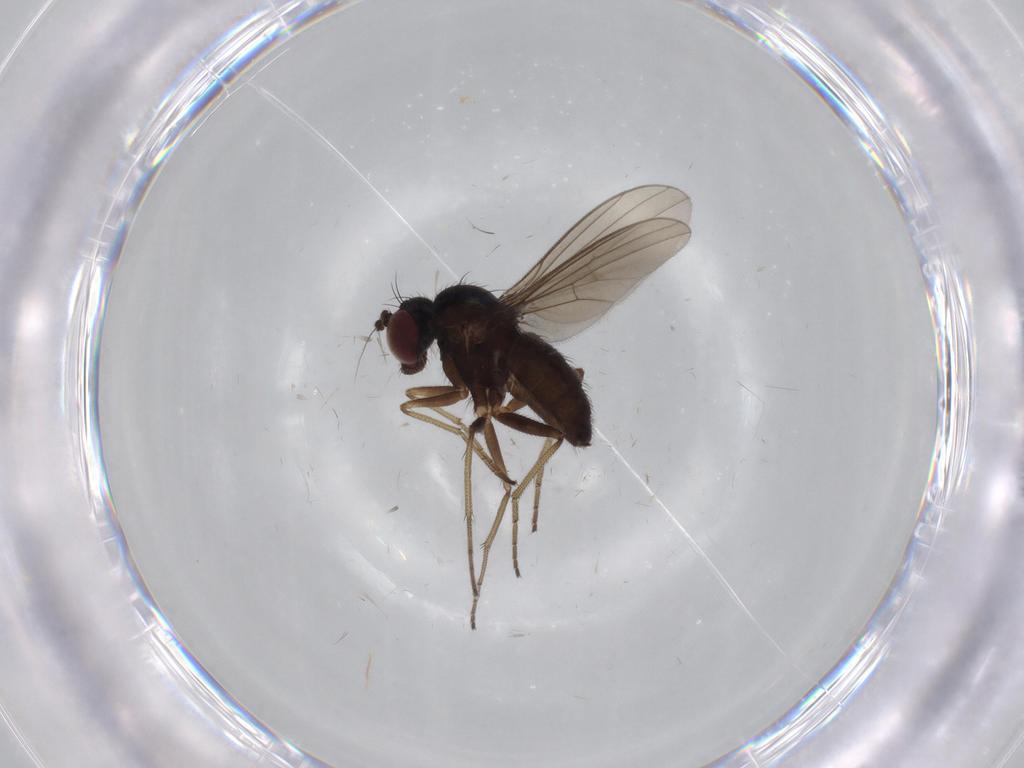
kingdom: Animalia
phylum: Arthropoda
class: Insecta
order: Diptera
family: Dolichopodidae
